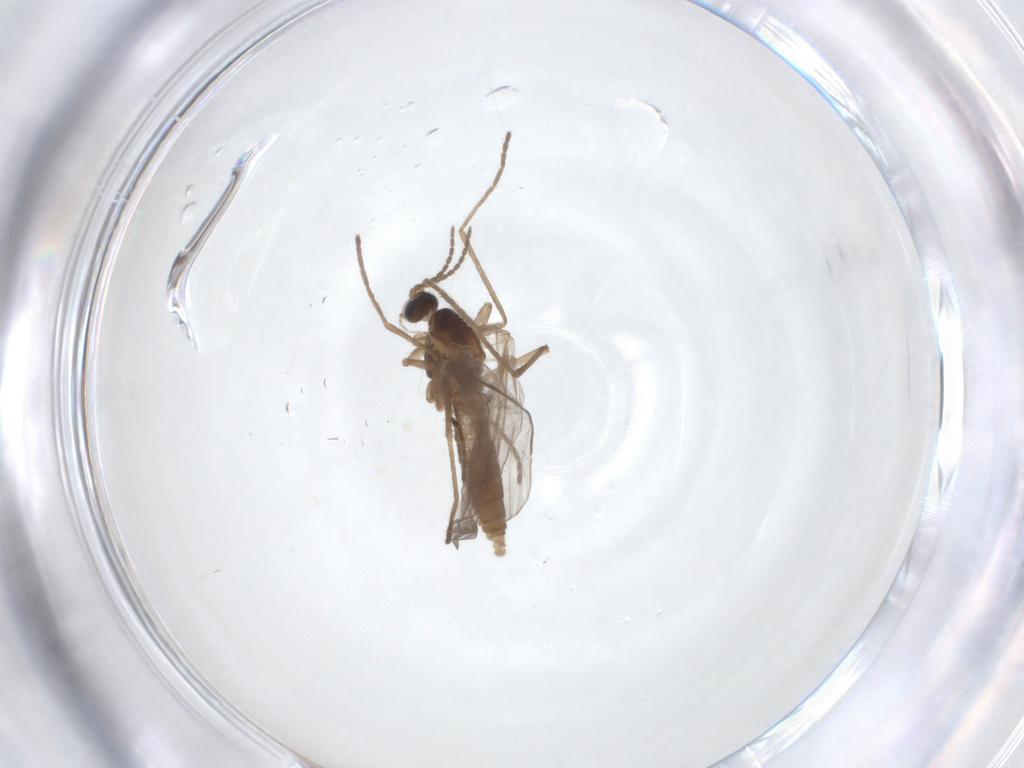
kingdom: Animalia
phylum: Arthropoda
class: Insecta
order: Diptera
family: Cecidomyiidae
